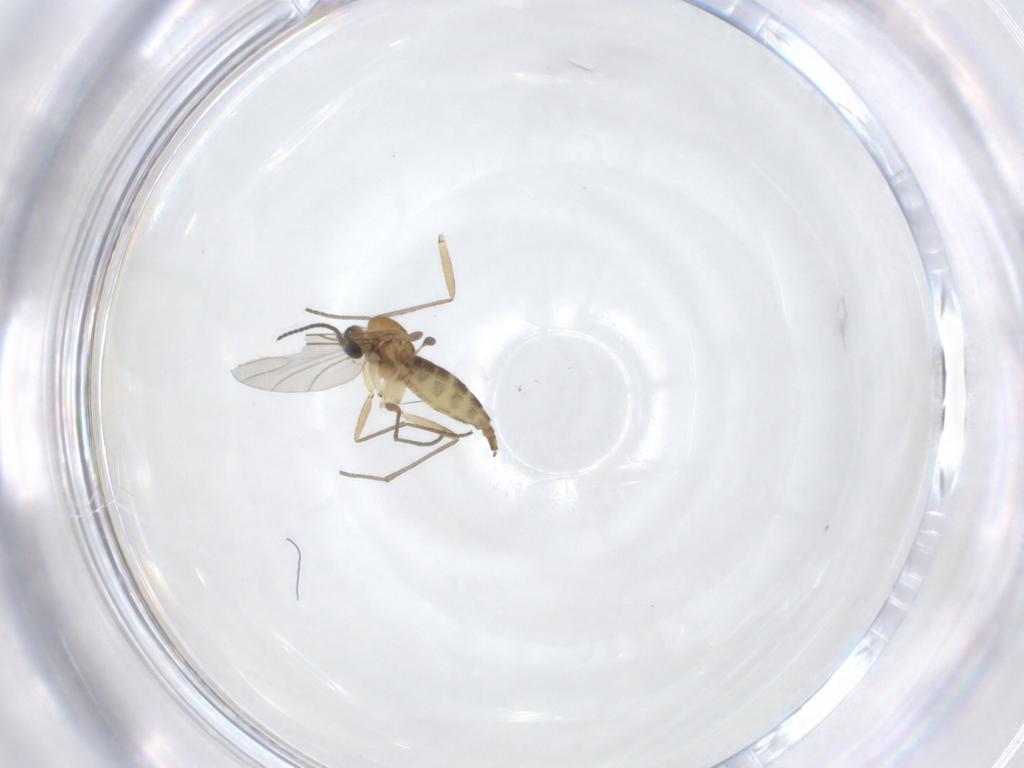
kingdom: Animalia
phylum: Arthropoda
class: Insecta
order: Diptera
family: Sciaridae
